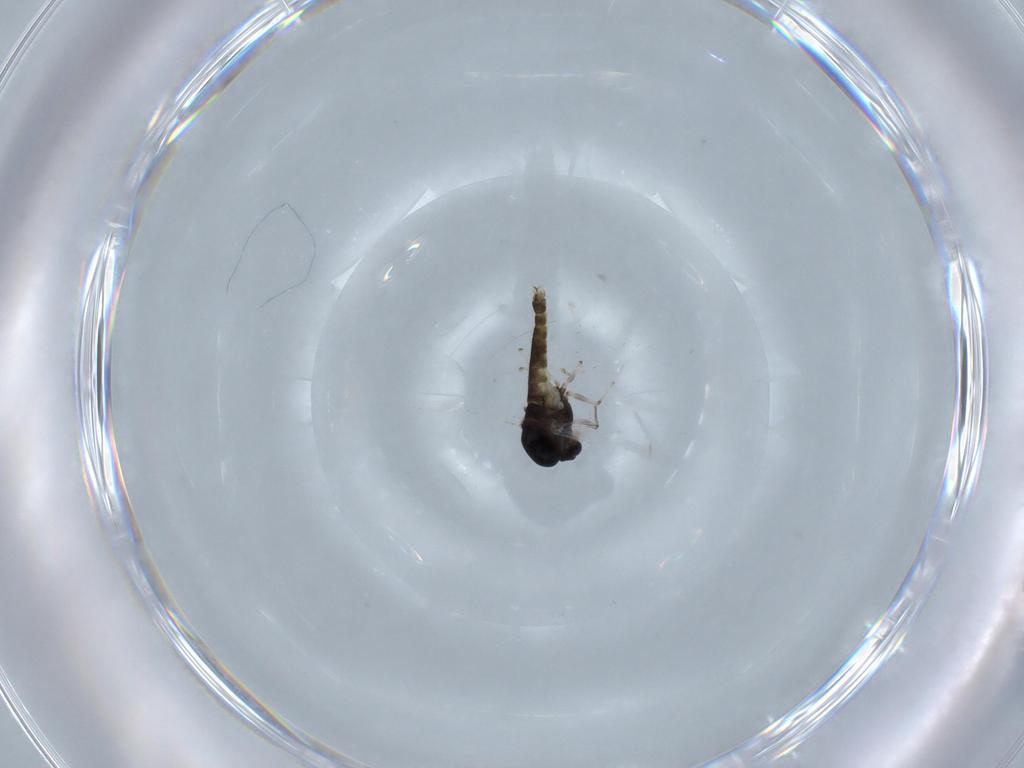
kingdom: Animalia
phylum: Arthropoda
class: Insecta
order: Diptera
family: Chironomidae
